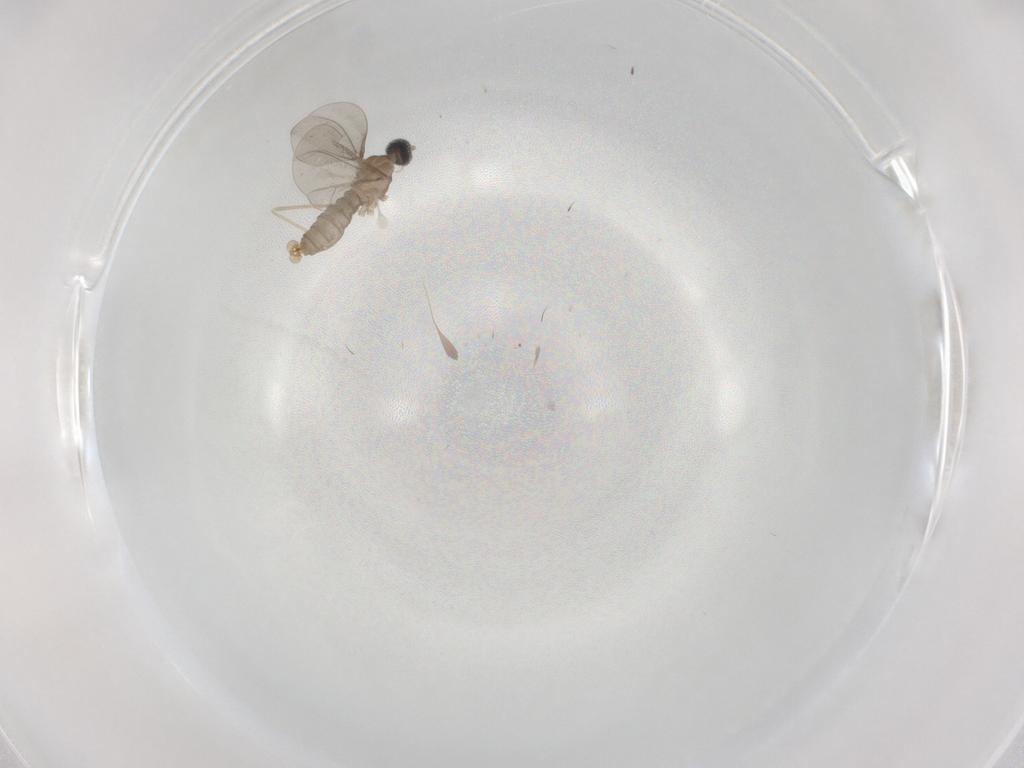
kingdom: Animalia
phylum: Arthropoda
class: Insecta
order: Diptera
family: Cecidomyiidae
